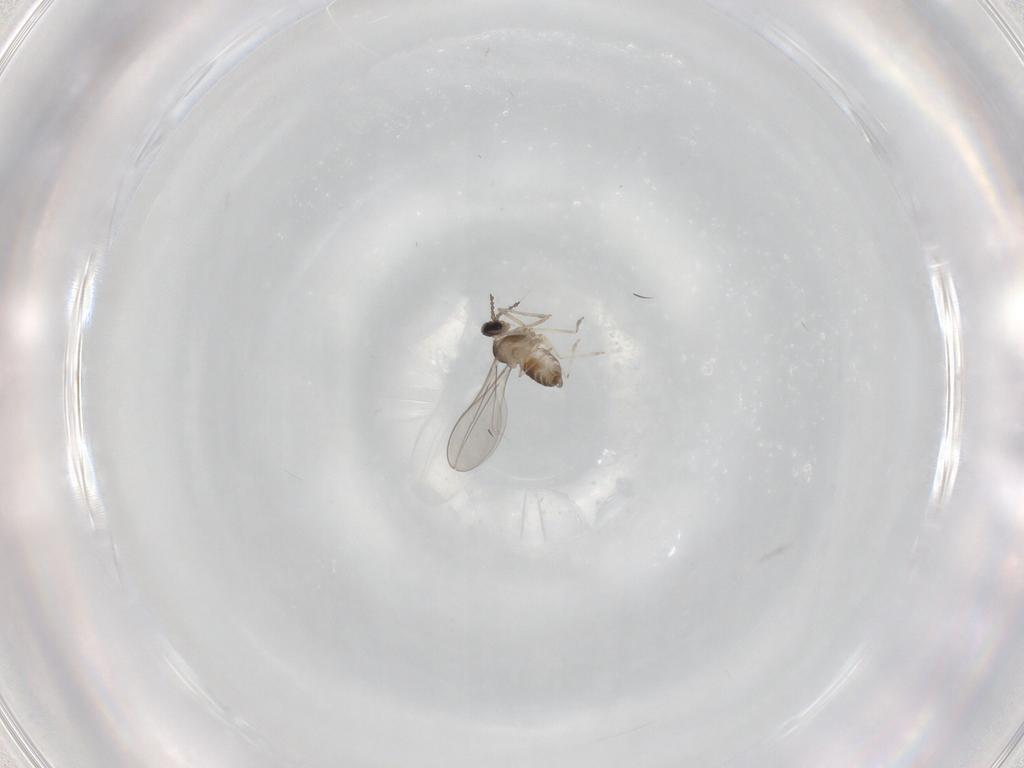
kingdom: Animalia
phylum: Arthropoda
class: Insecta
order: Diptera
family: Cecidomyiidae
